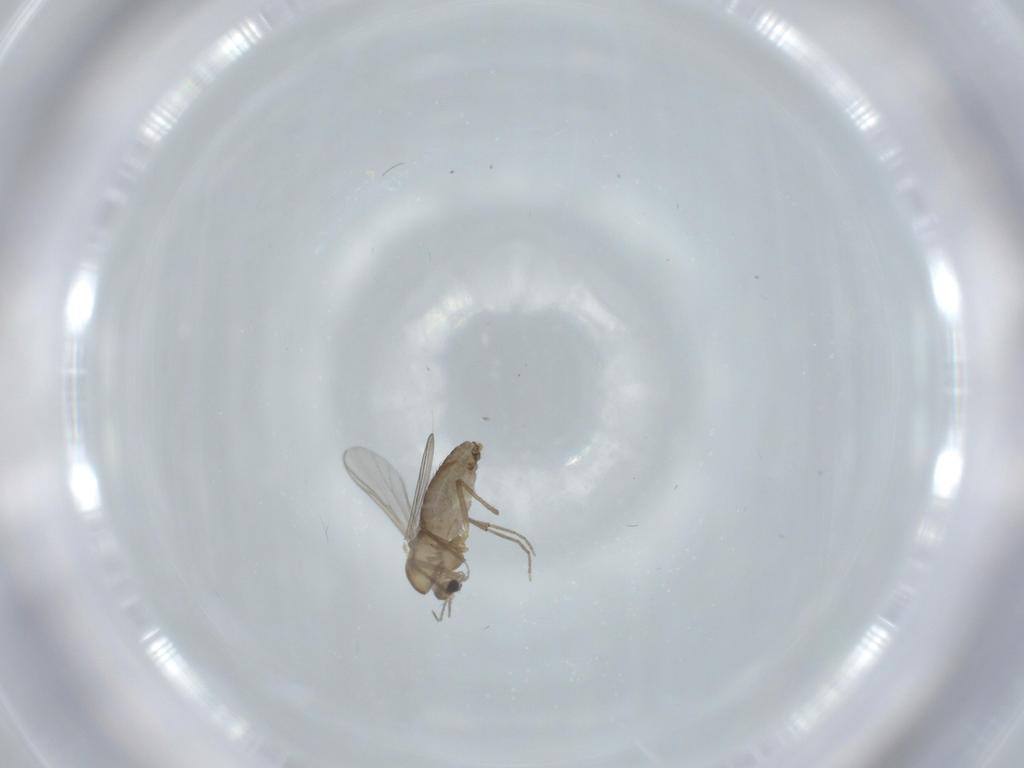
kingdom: Animalia
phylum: Arthropoda
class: Insecta
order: Diptera
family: Chironomidae
